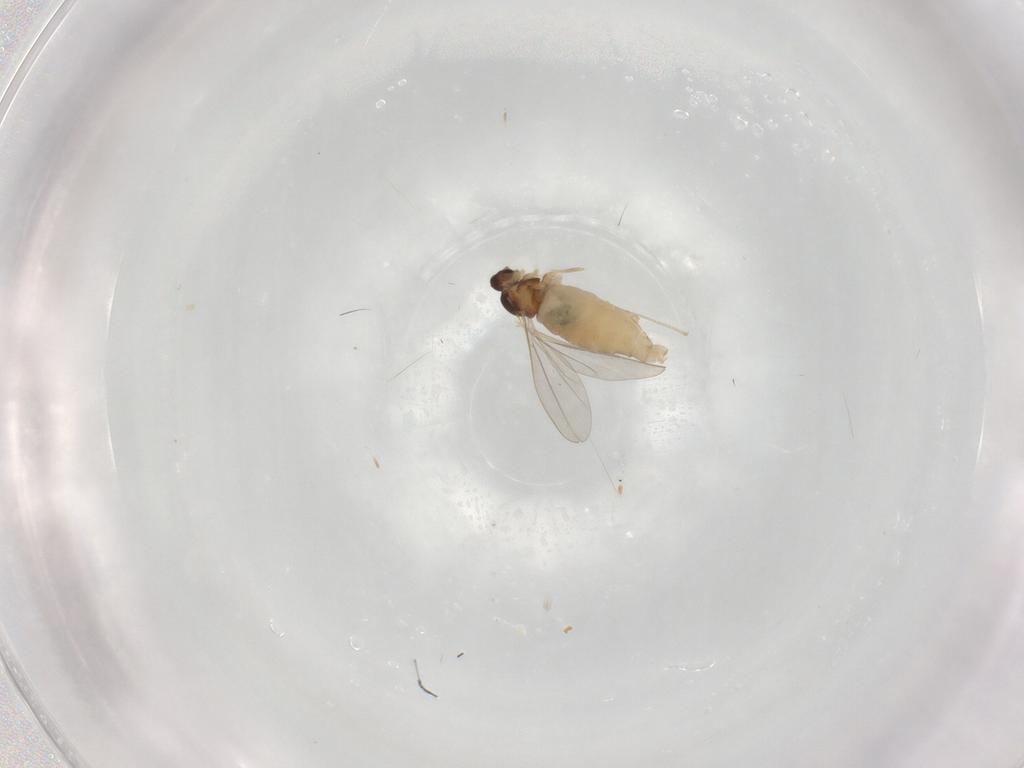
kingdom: Animalia
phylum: Arthropoda
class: Insecta
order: Diptera
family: Cecidomyiidae
